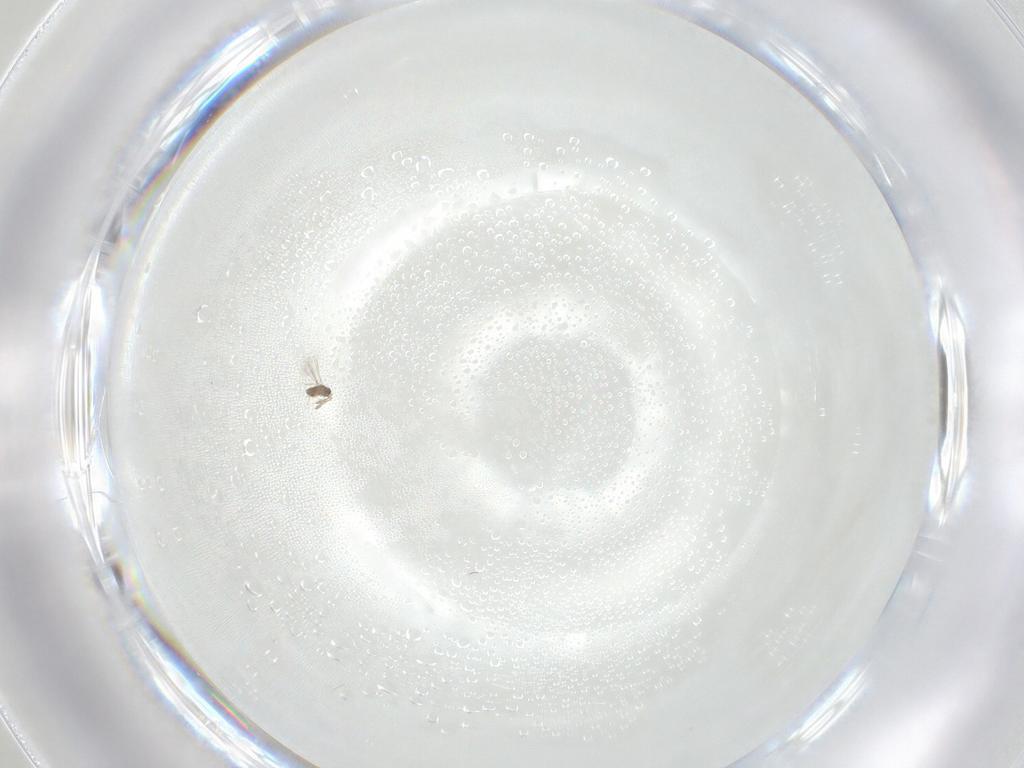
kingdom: Animalia
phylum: Arthropoda
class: Insecta
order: Hymenoptera
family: Mymaridae
